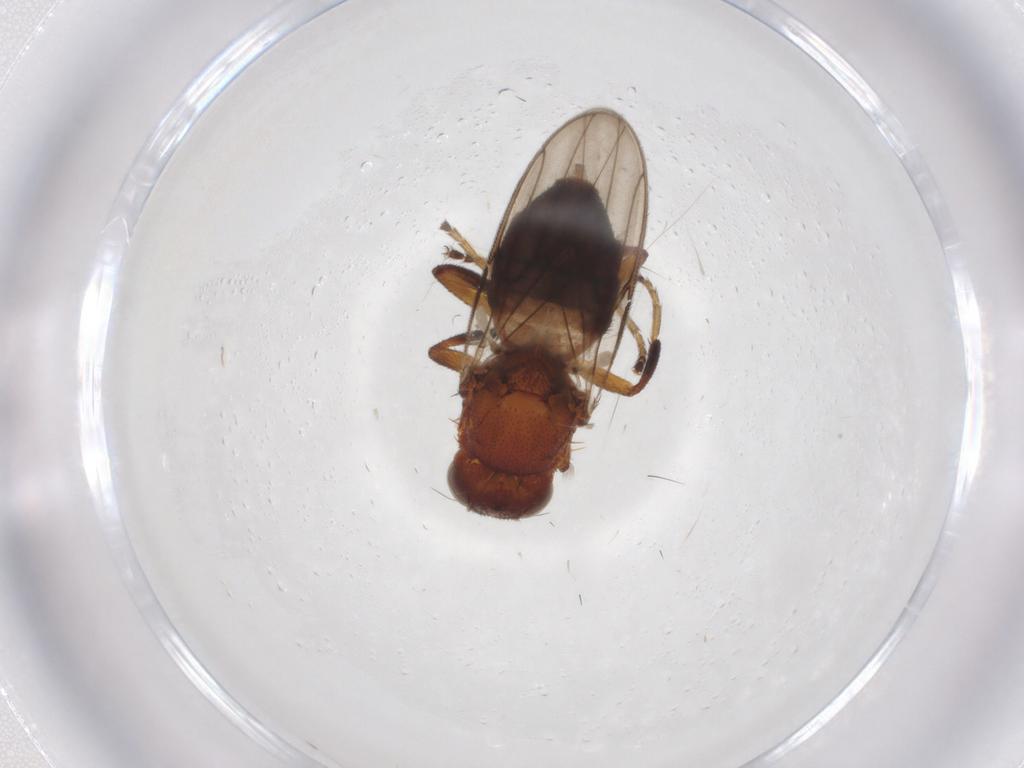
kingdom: Animalia
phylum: Arthropoda
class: Insecta
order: Diptera
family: Chloropidae
